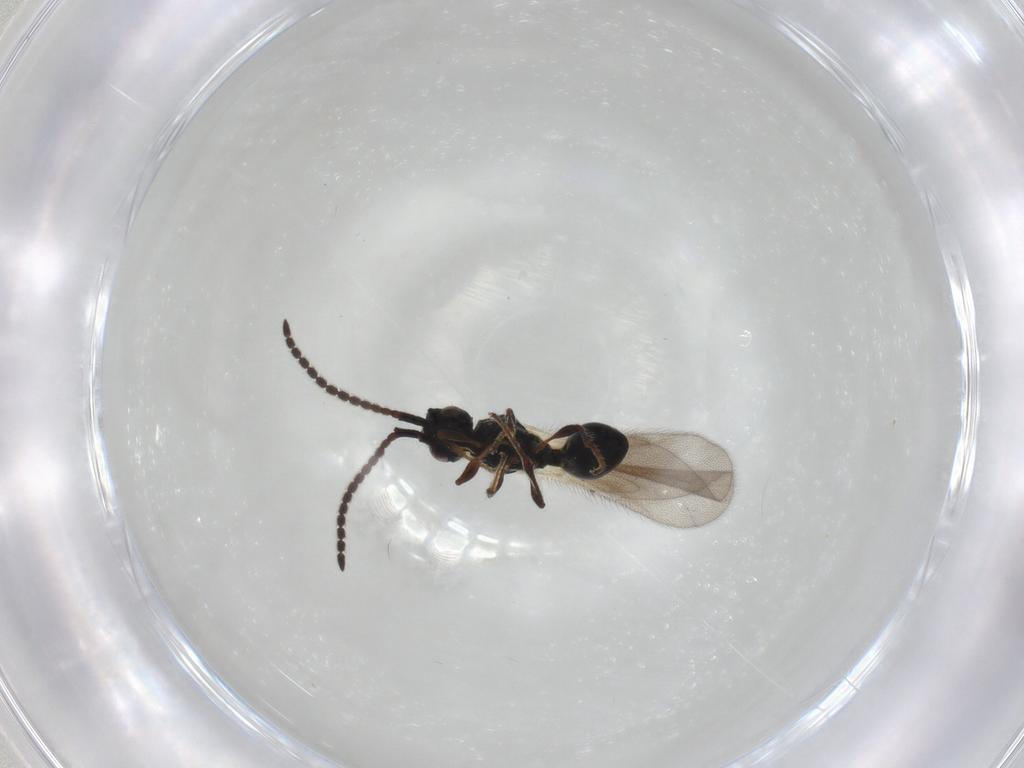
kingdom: Animalia
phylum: Arthropoda
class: Insecta
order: Hymenoptera
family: Diapriidae
